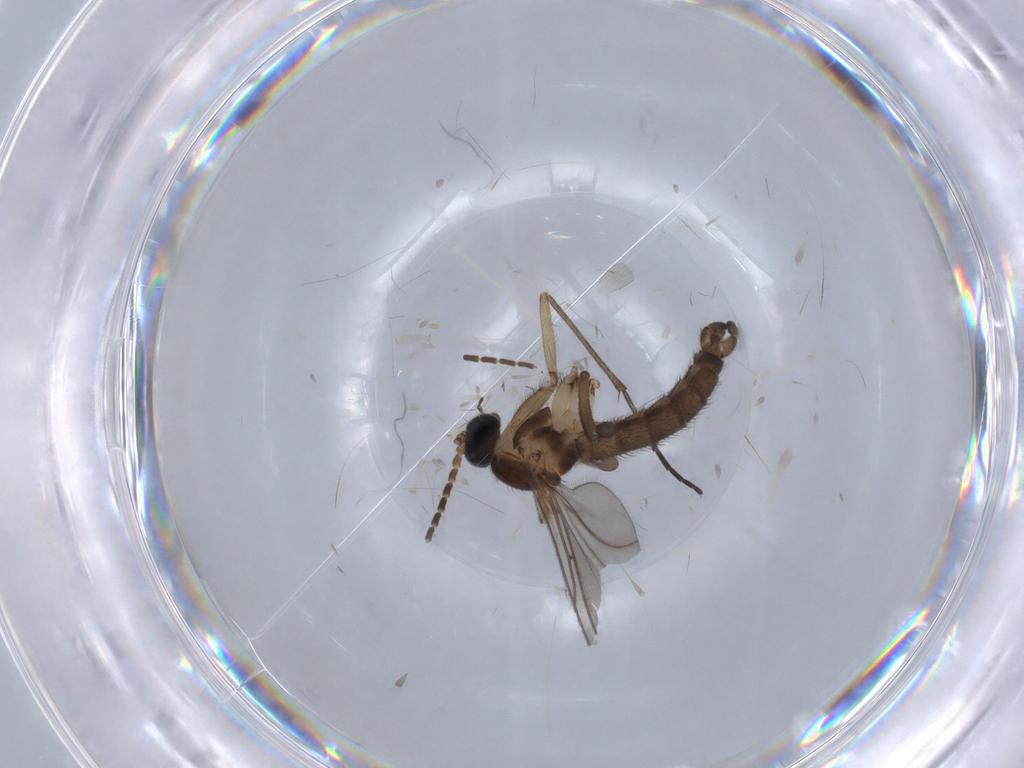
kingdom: Animalia
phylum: Arthropoda
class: Insecta
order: Diptera
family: Sciaridae
